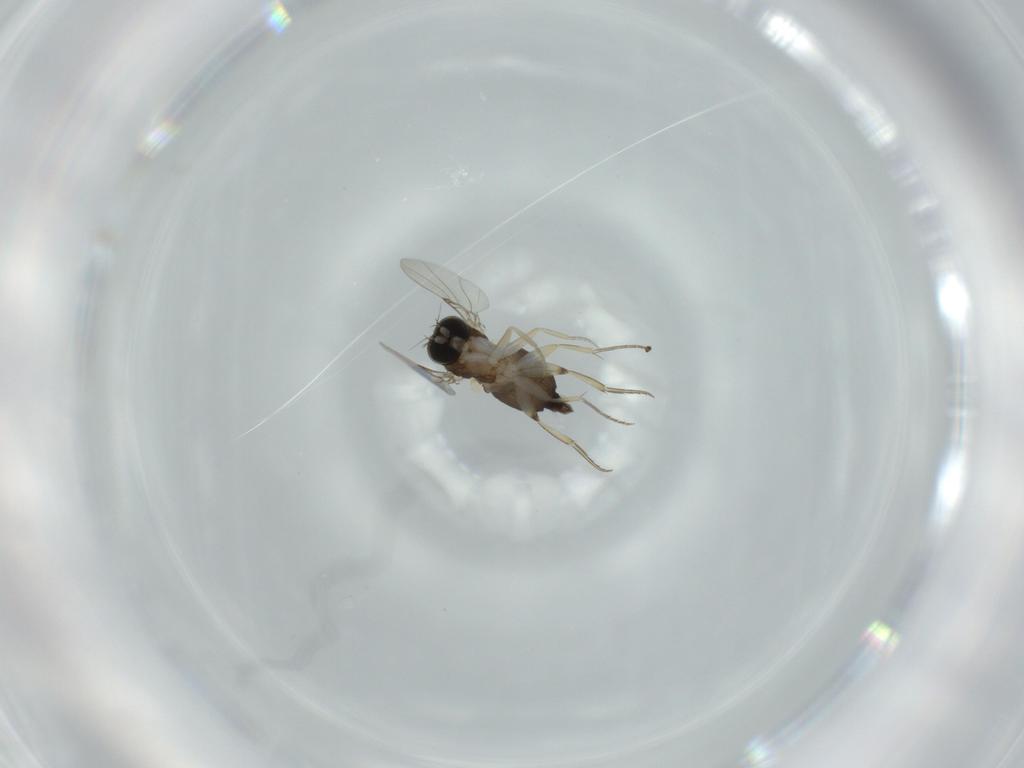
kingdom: Animalia
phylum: Arthropoda
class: Insecta
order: Diptera
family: Phoridae
